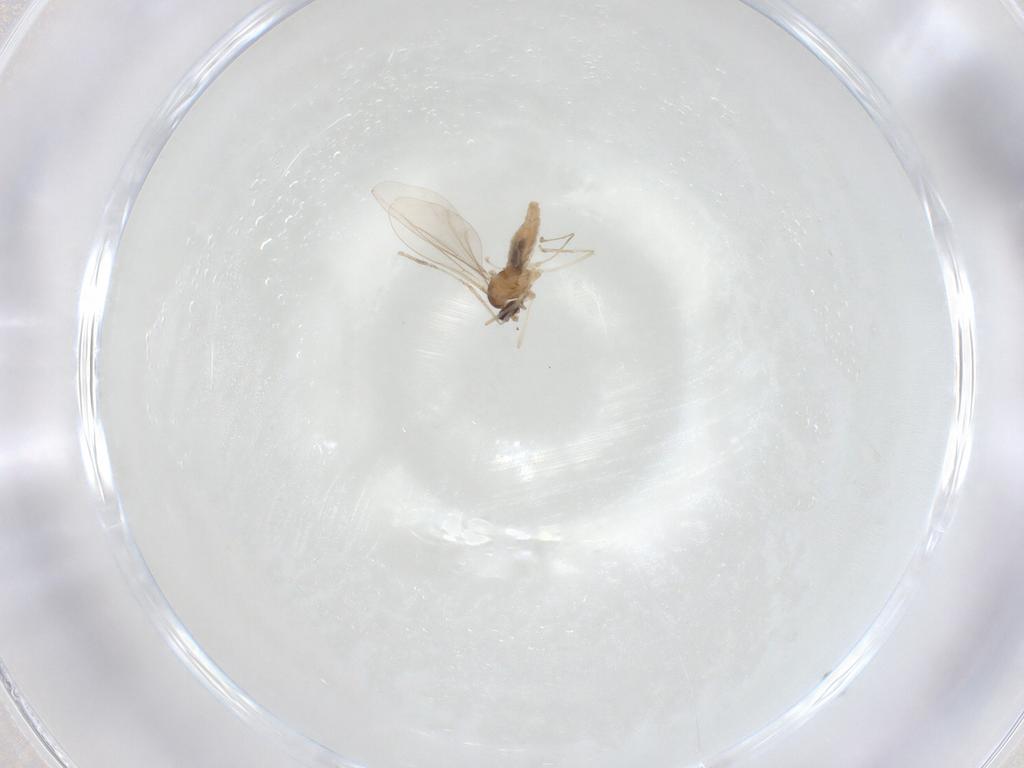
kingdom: Animalia
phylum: Arthropoda
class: Insecta
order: Diptera
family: Cecidomyiidae
